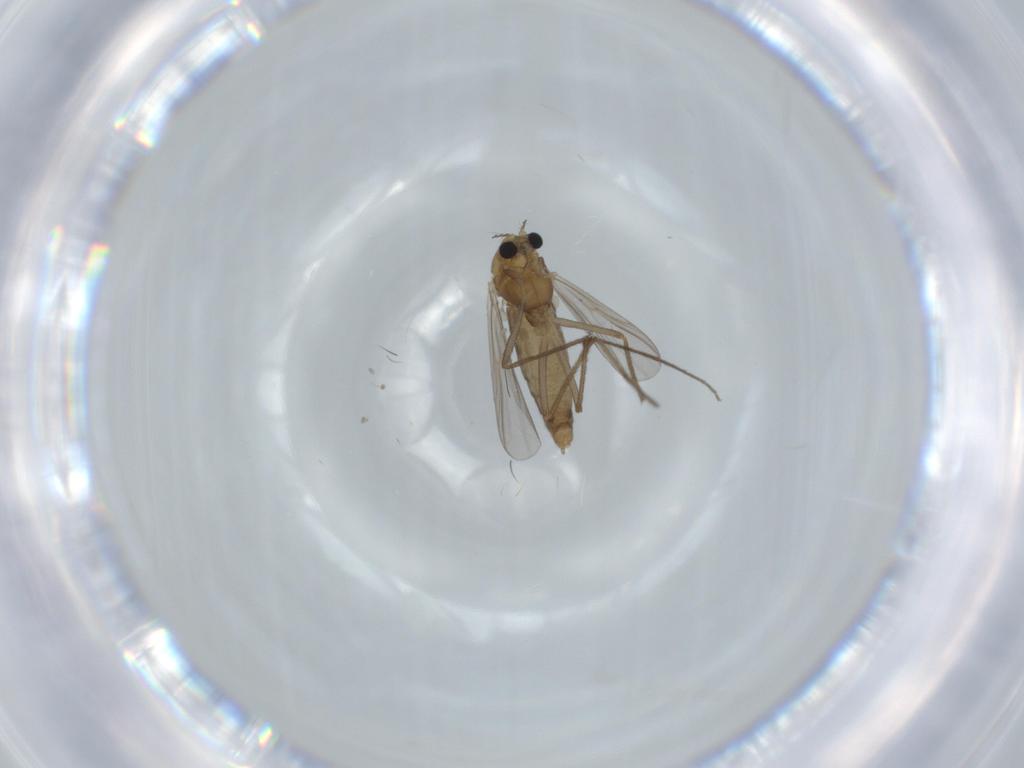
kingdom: Animalia
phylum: Arthropoda
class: Insecta
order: Diptera
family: Chironomidae
